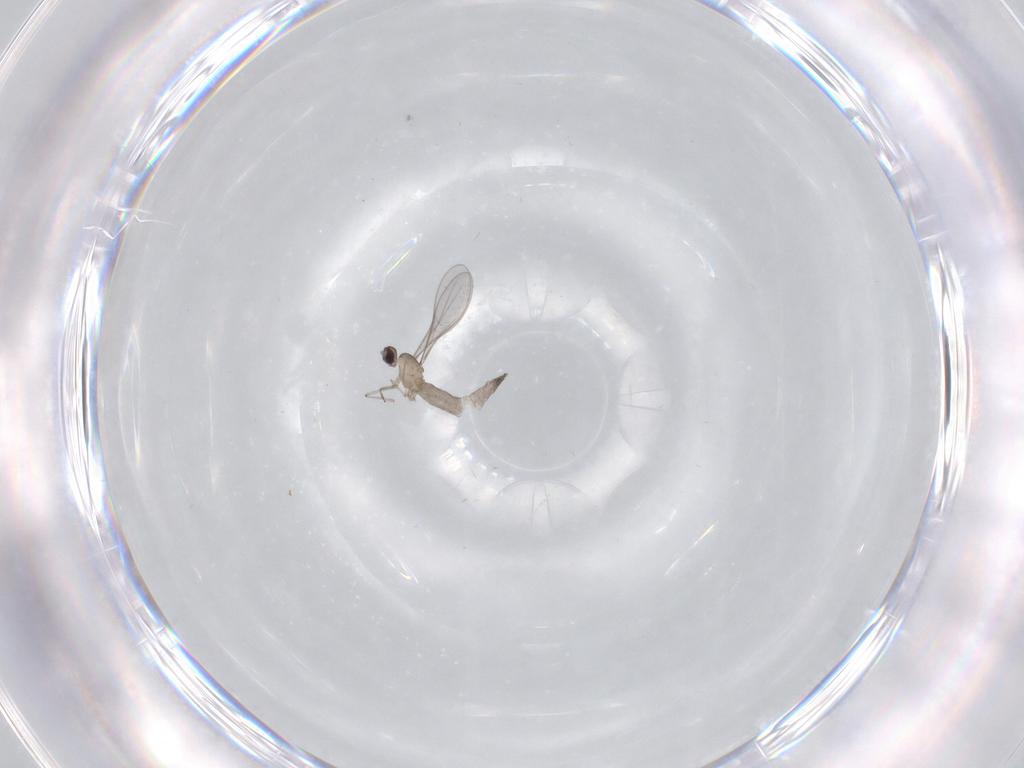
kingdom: Animalia
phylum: Arthropoda
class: Insecta
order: Diptera
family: Cecidomyiidae
